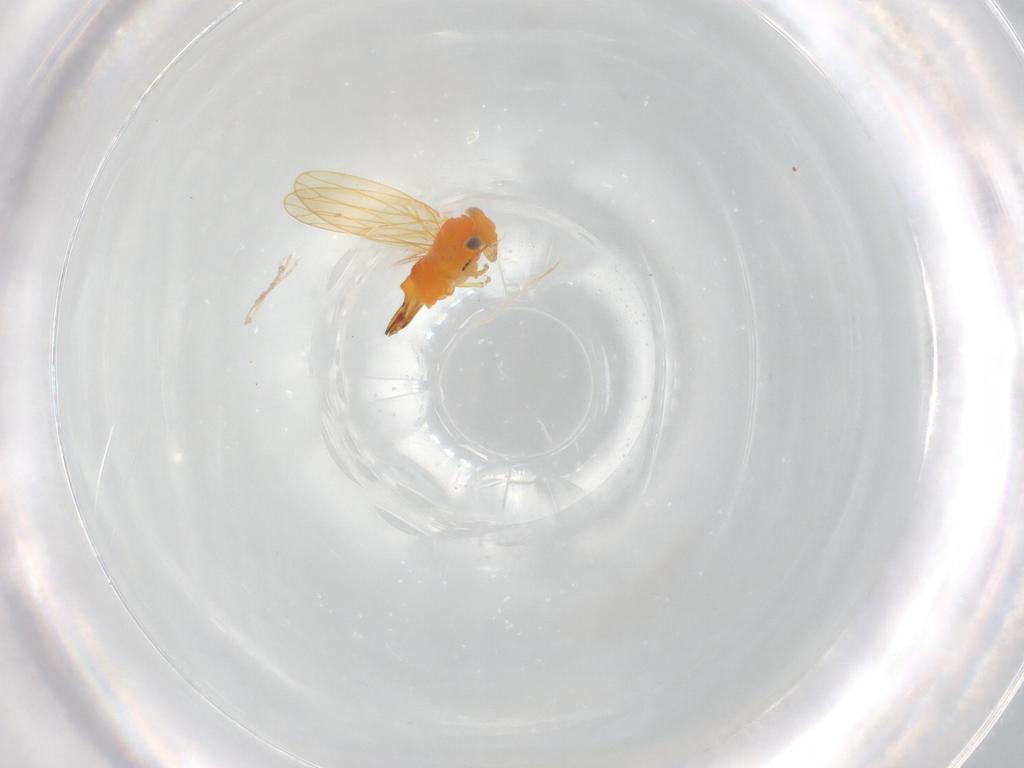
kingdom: Animalia
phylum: Arthropoda
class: Insecta
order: Hemiptera
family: Aphalaridae
